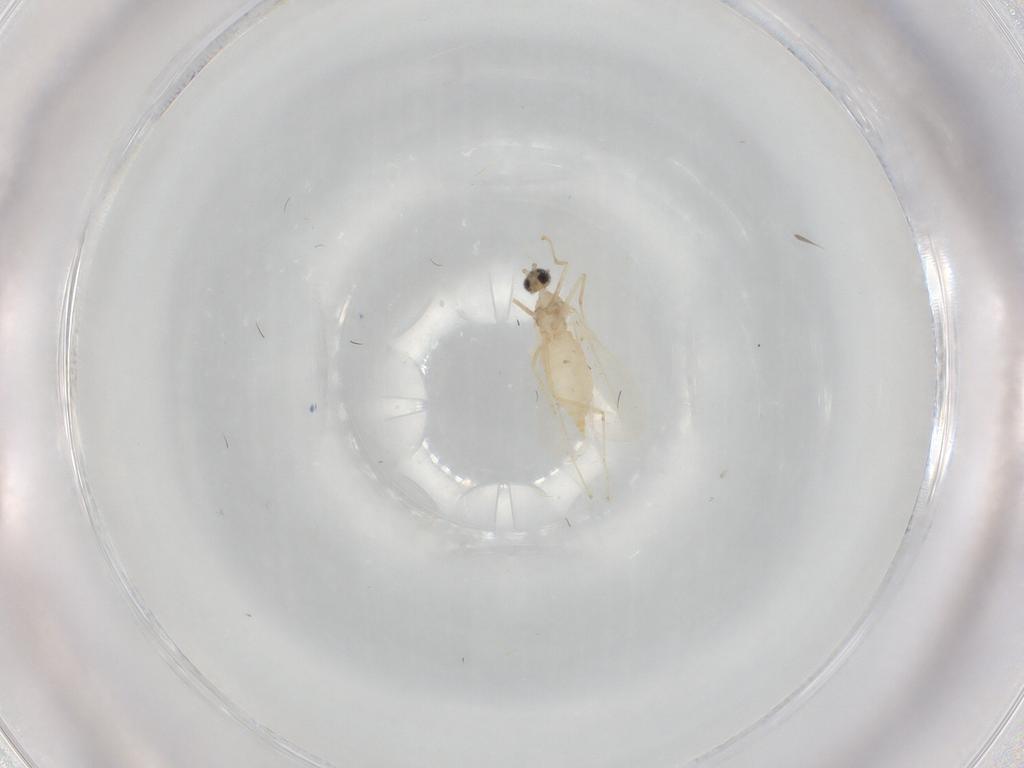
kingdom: Animalia
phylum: Arthropoda
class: Insecta
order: Diptera
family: Cecidomyiidae
